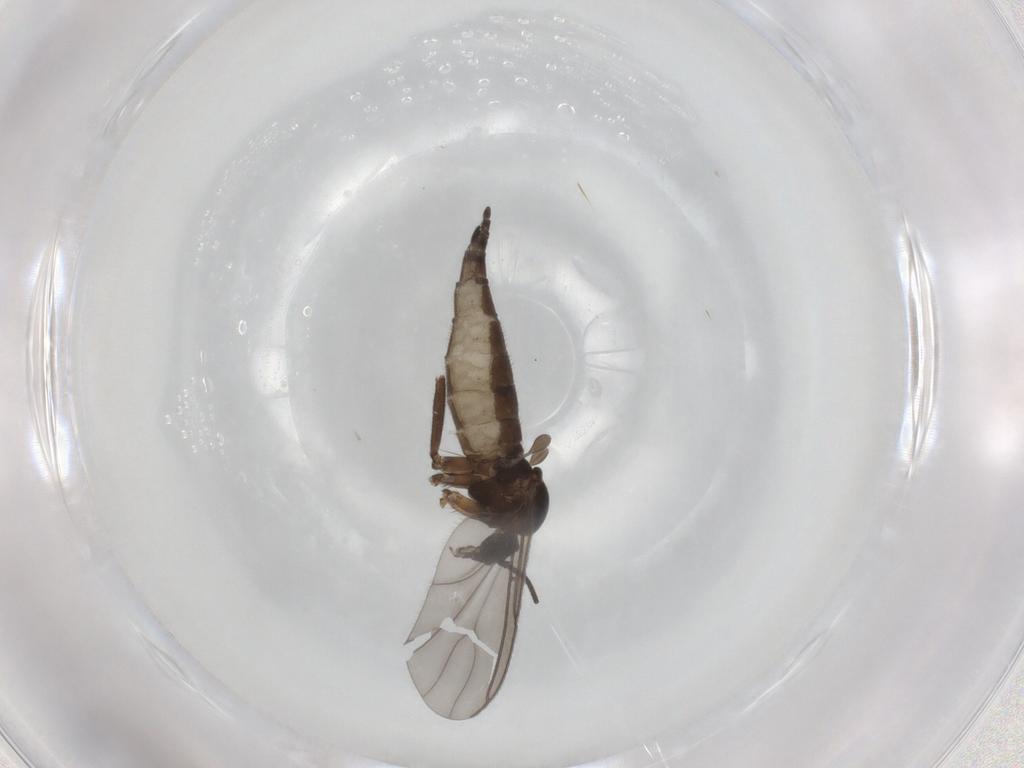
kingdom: Animalia
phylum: Arthropoda
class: Insecta
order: Diptera
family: Sciaridae
